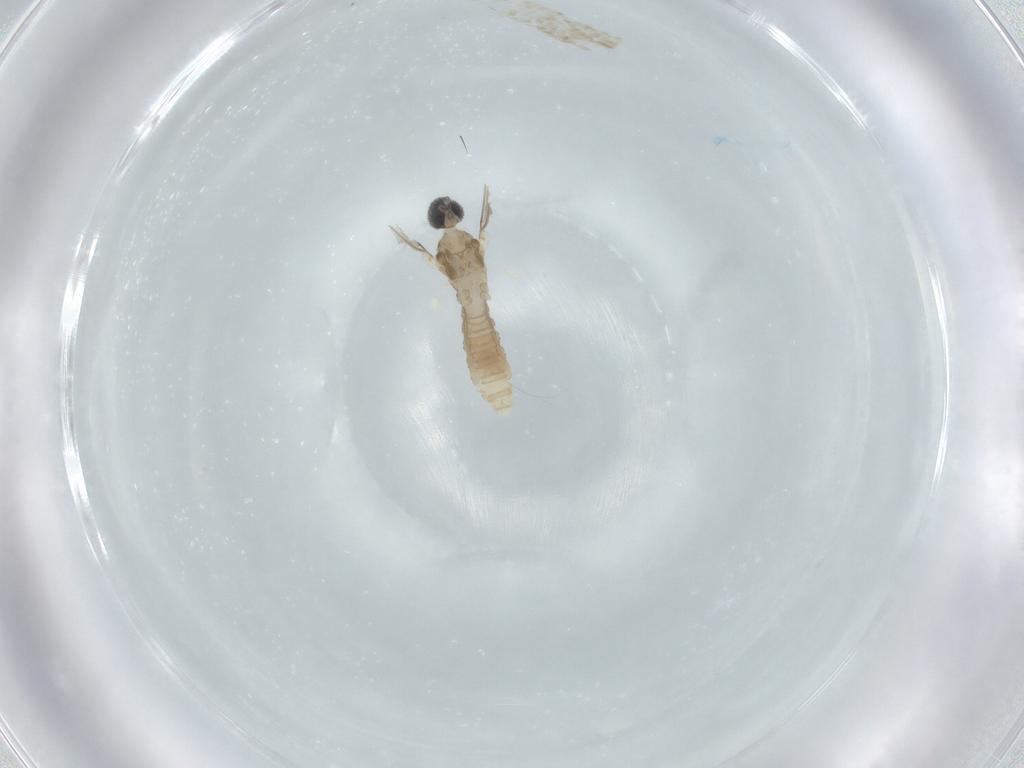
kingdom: Animalia
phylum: Arthropoda
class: Insecta
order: Diptera
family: Cecidomyiidae
